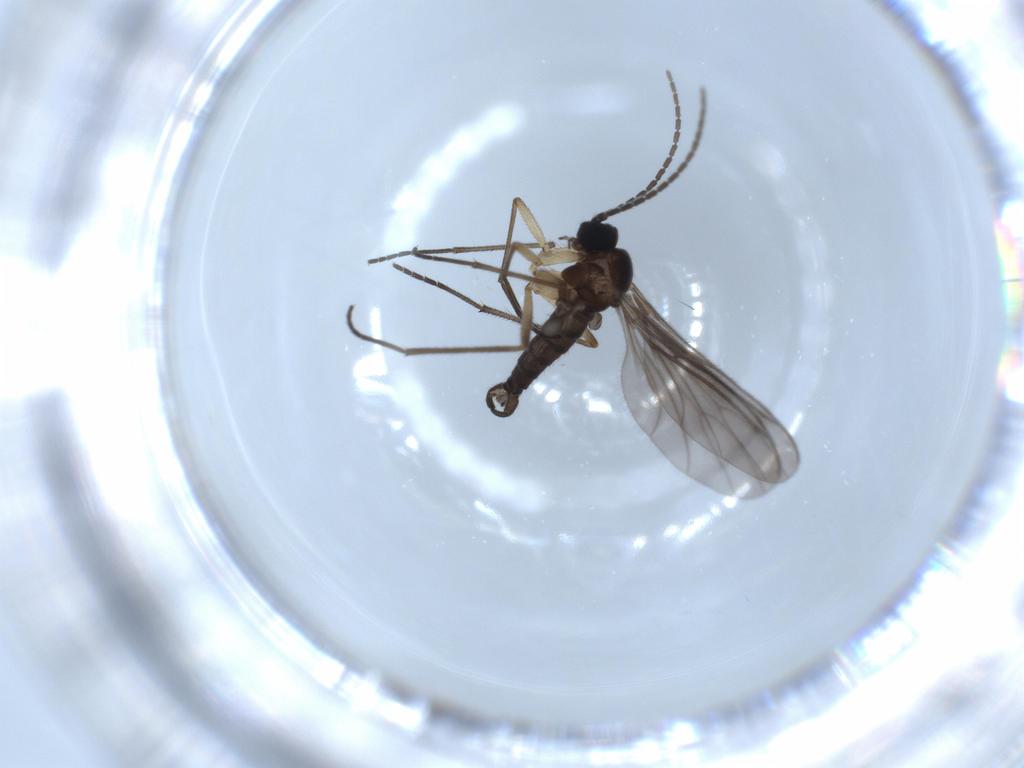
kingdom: Animalia
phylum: Arthropoda
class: Insecta
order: Diptera
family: Sciaridae
